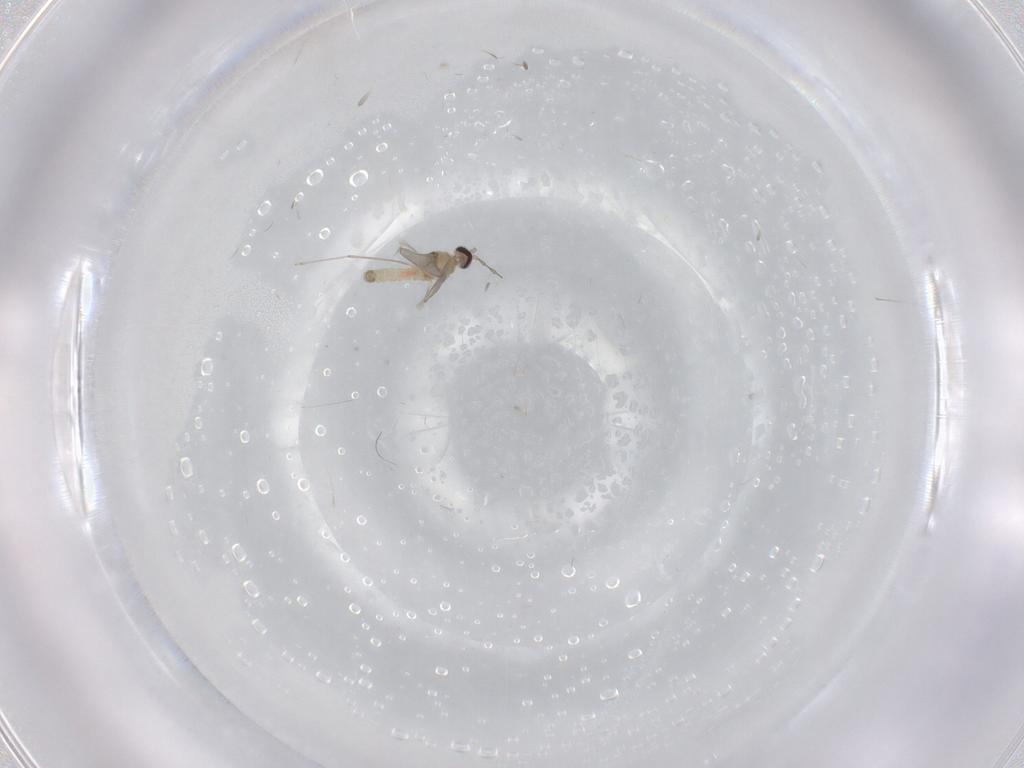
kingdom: Animalia
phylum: Arthropoda
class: Insecta
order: Diptera
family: Cecidomyiidae
